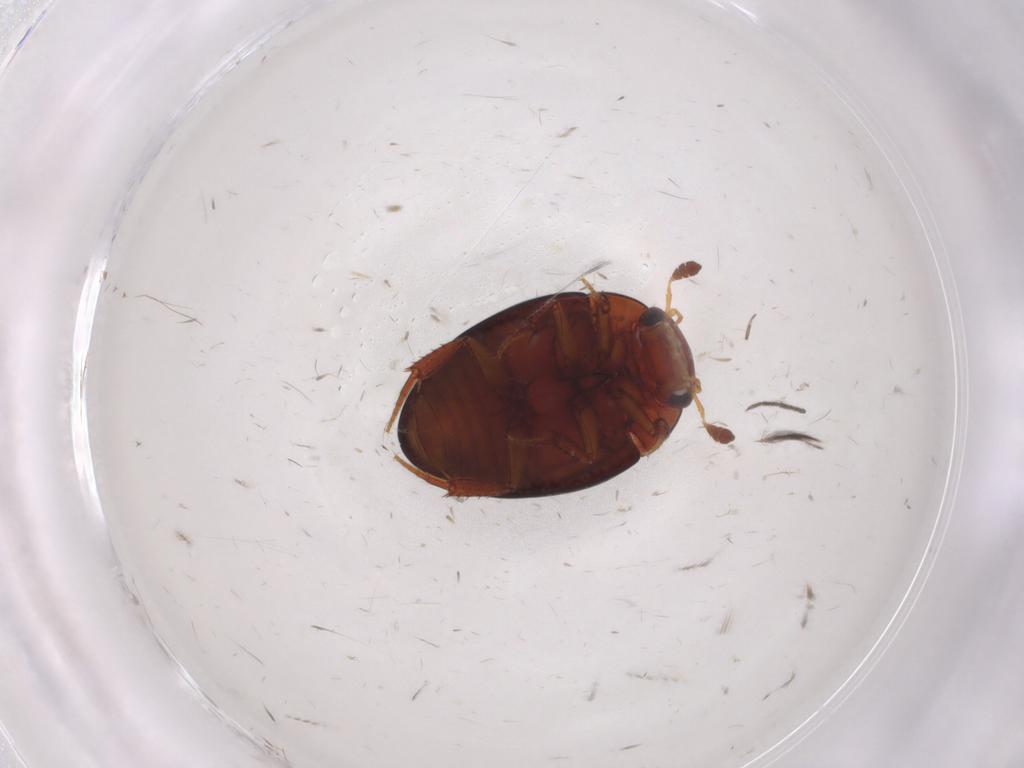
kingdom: Animalia
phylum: Arthropoda
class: Insecta
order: Coleoptera
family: Hydrophilidae
